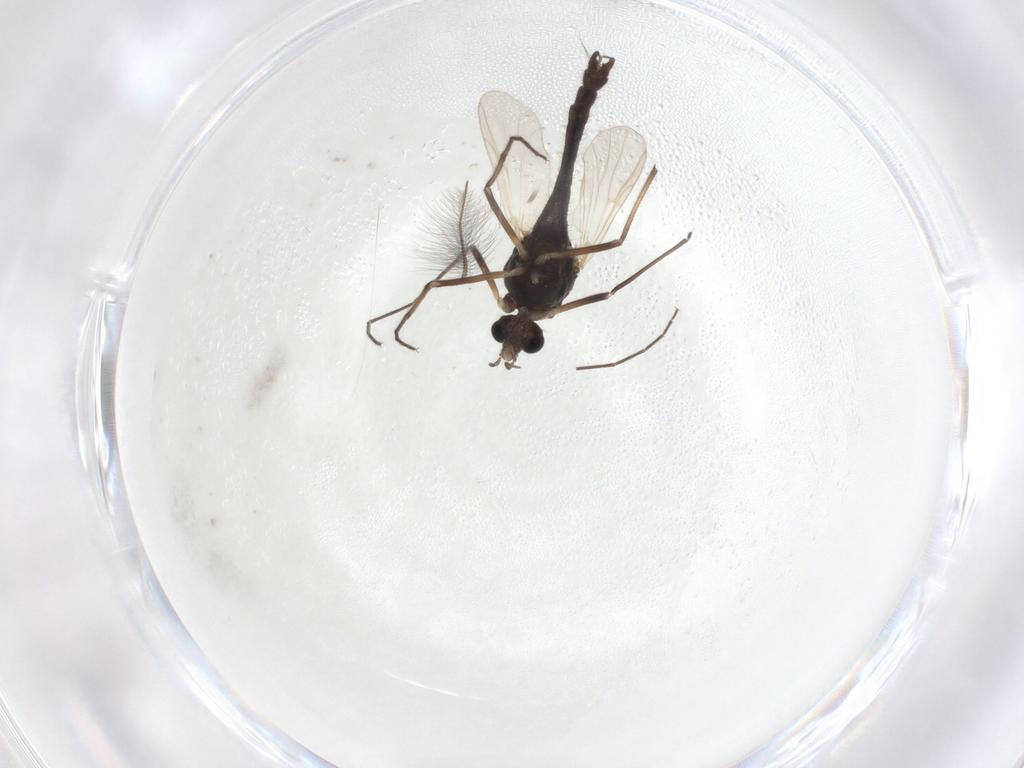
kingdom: Animalia
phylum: Arthropoda
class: Insecta
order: Diptera
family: Chironomidae
